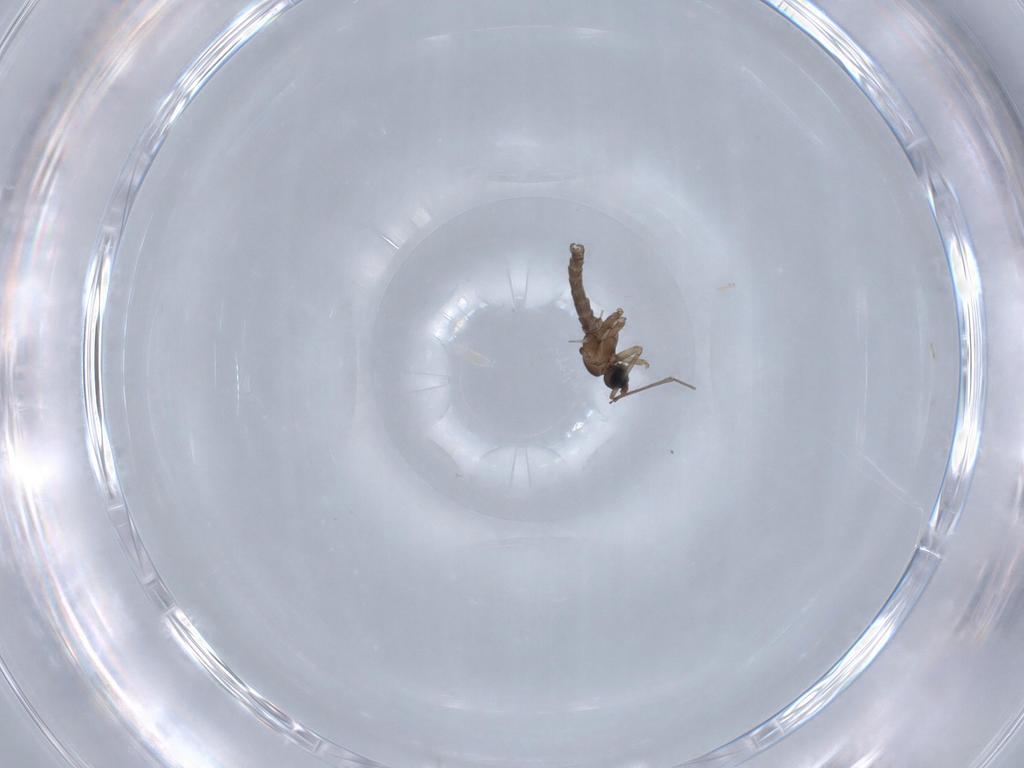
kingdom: Animalia
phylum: Arthropoda
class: Insecta
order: Diptera
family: Sciaridae
